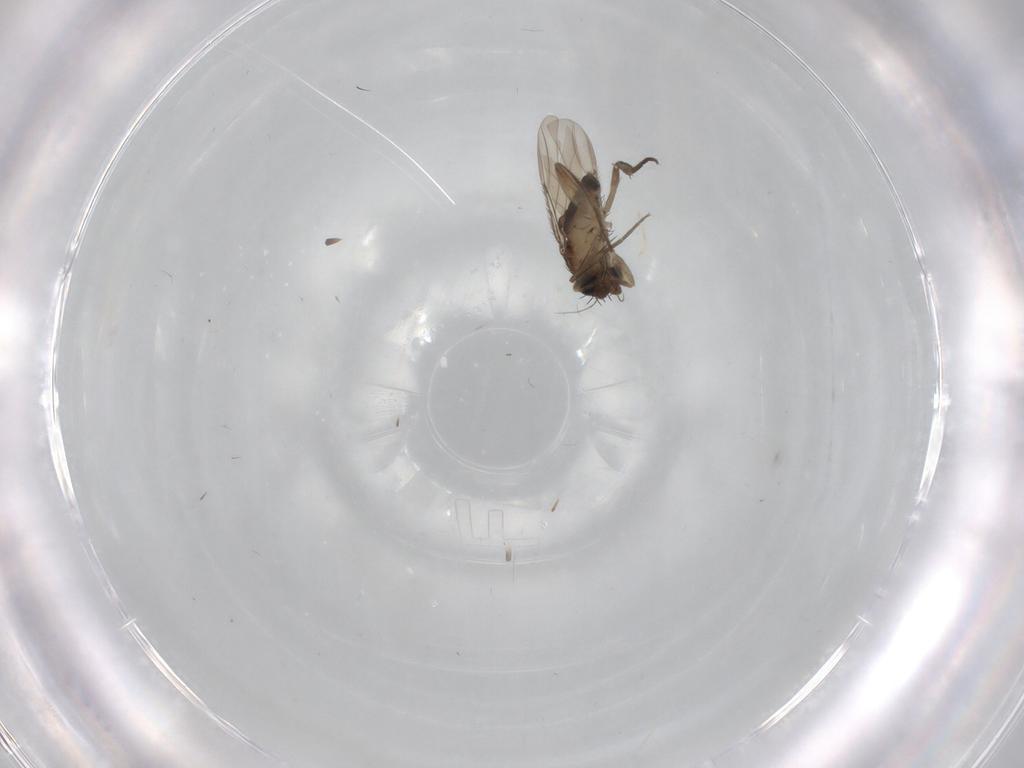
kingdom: Animalia
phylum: Arthropoda
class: Insecta
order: Diptera
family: Phoridae
